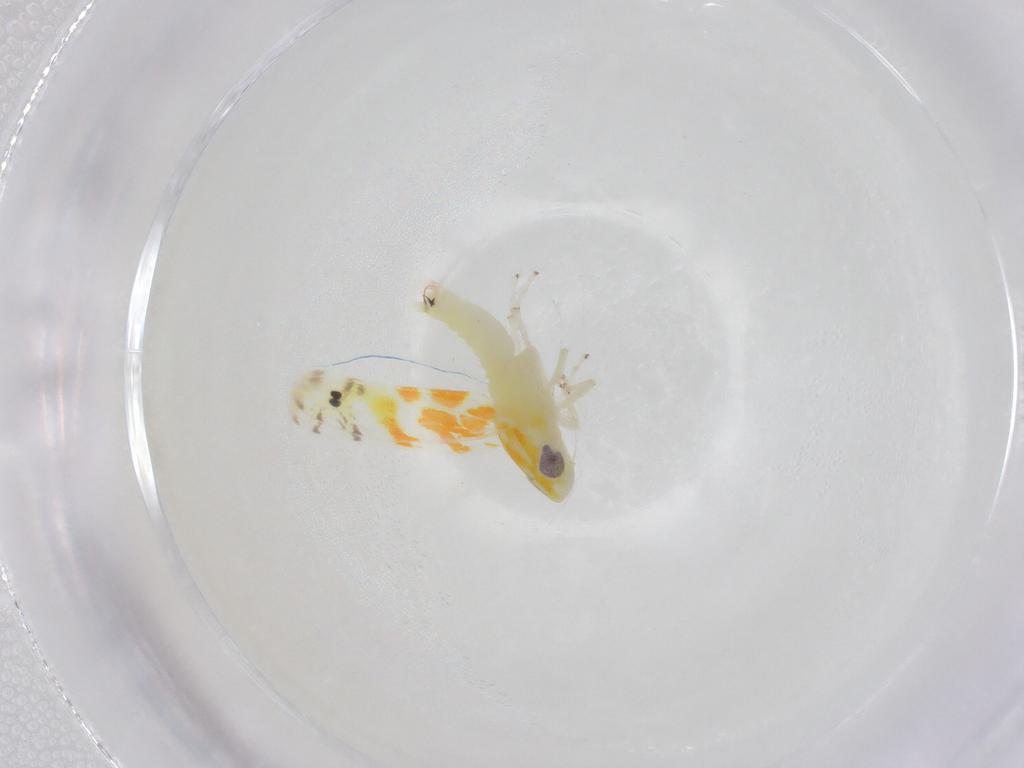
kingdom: Animalia
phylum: Arthropoda
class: Insecta
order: Hemiptera
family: Cicadellidae
